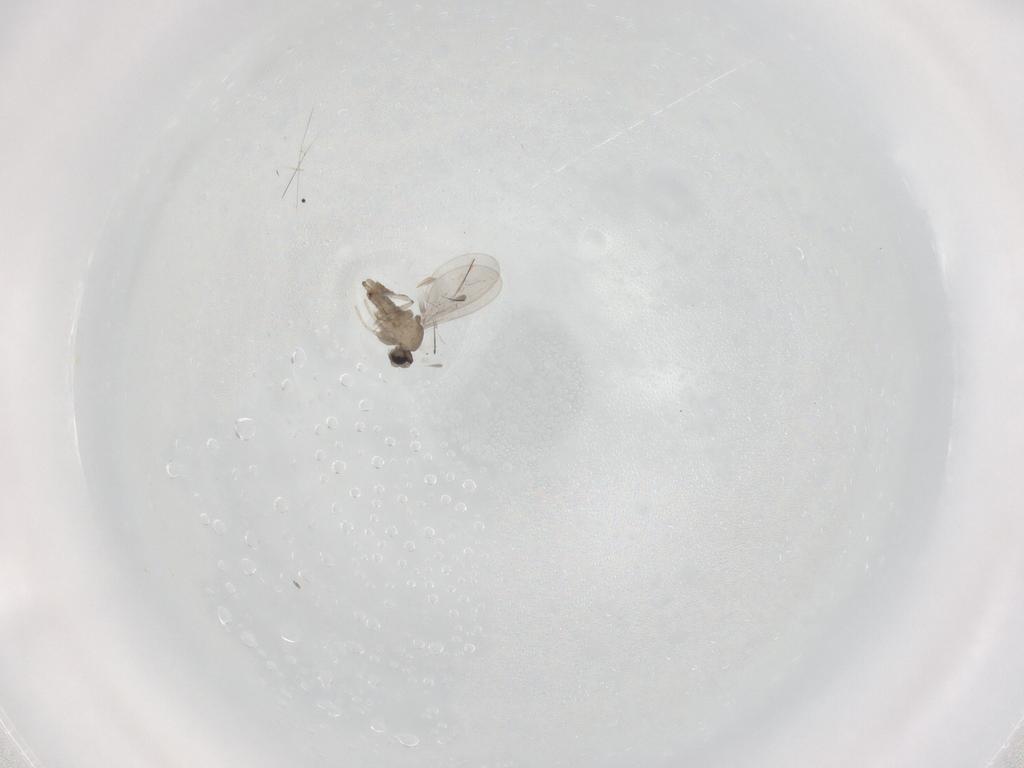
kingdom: Animalia
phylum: Arthropoda
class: Insecta
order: Diptera
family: Cecidomyiidae
